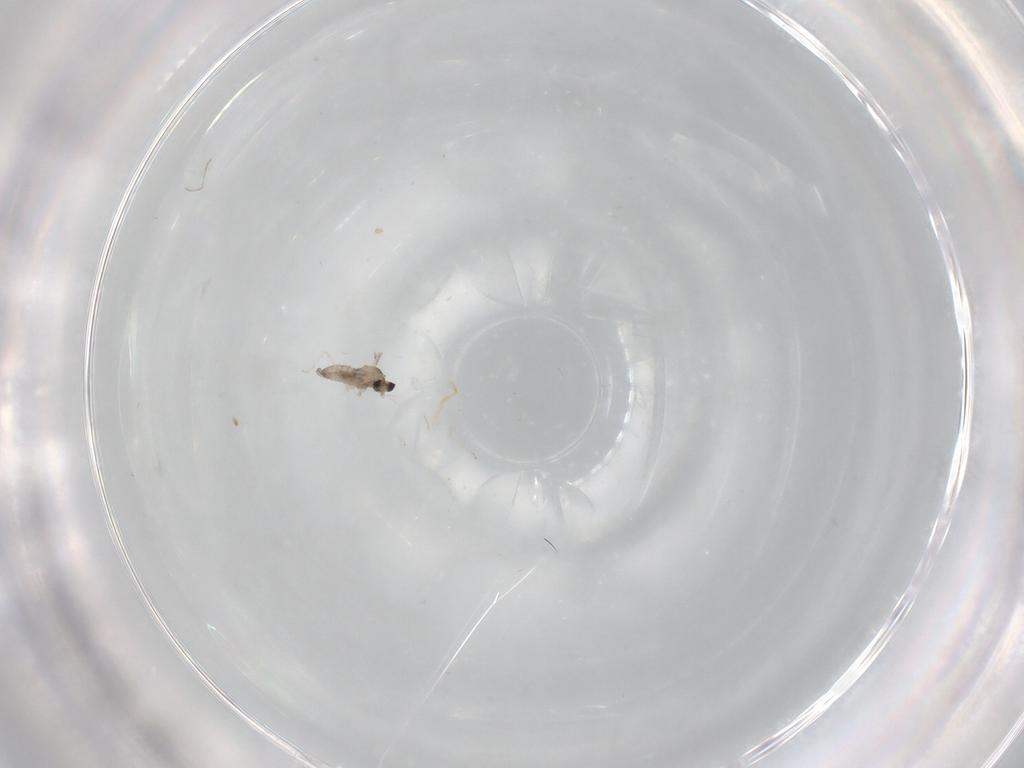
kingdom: Animalia
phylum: Arthropoda
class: Insecta
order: Diptera
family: Cecidomyiidae
